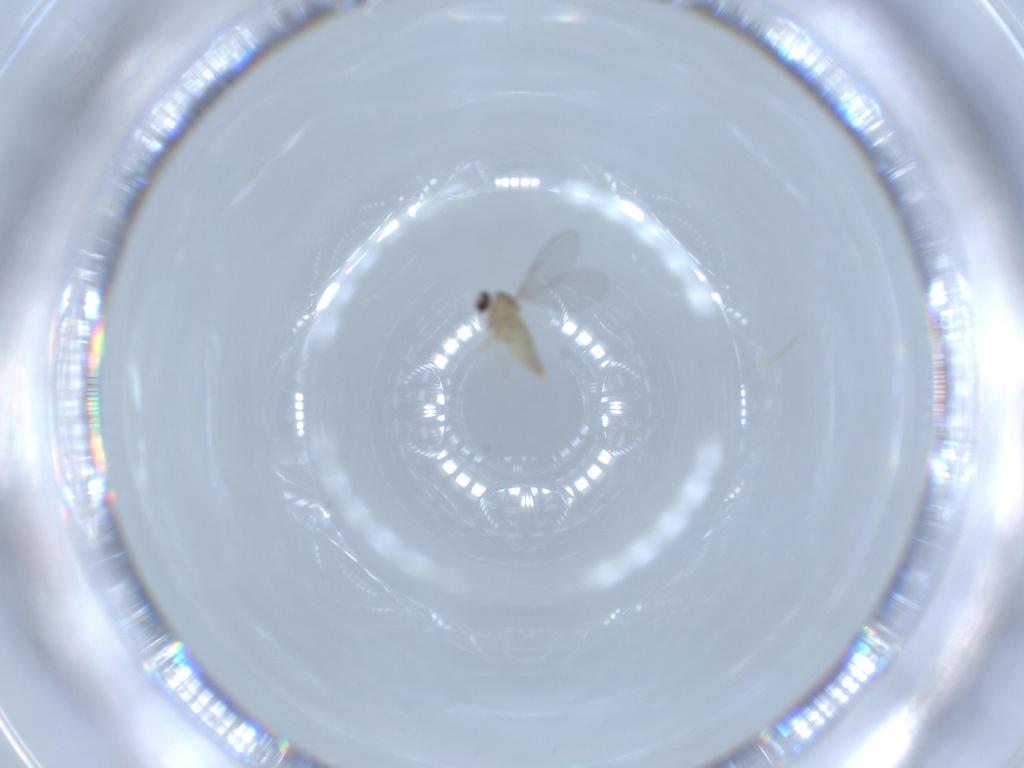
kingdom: Animalia
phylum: Arthropoda
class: Insecta
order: Diptera
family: Cecidomyiidae
